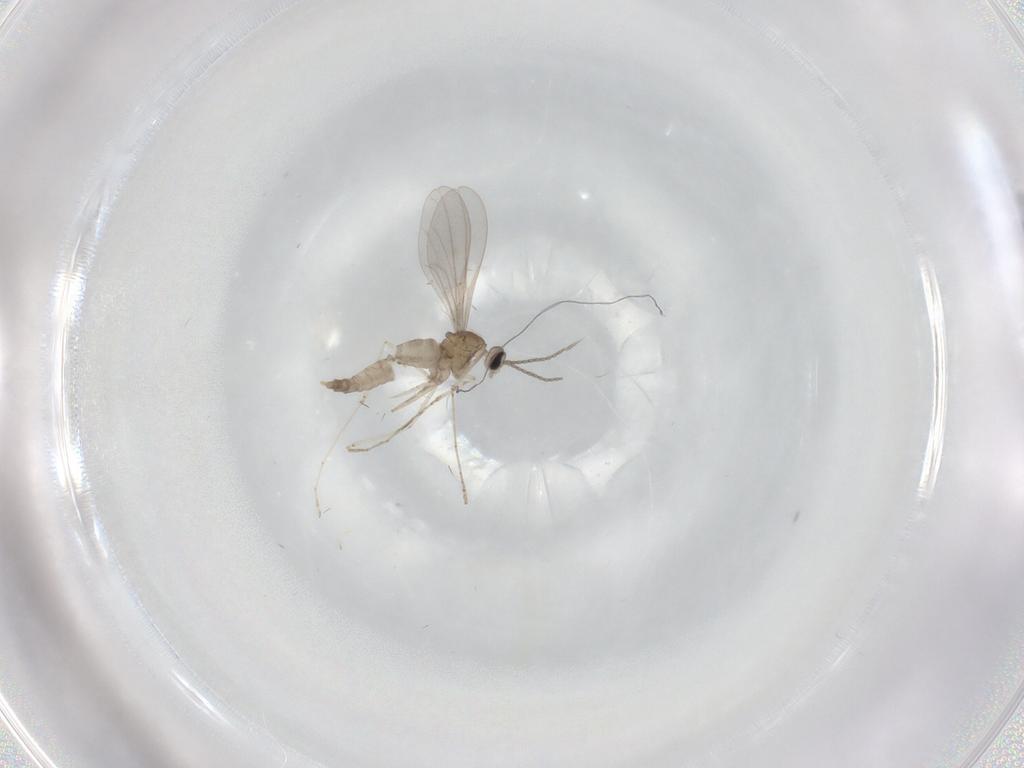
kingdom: Animalia
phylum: Arthropoda
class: Insecta
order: Diptera
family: Cecidomyiidae
